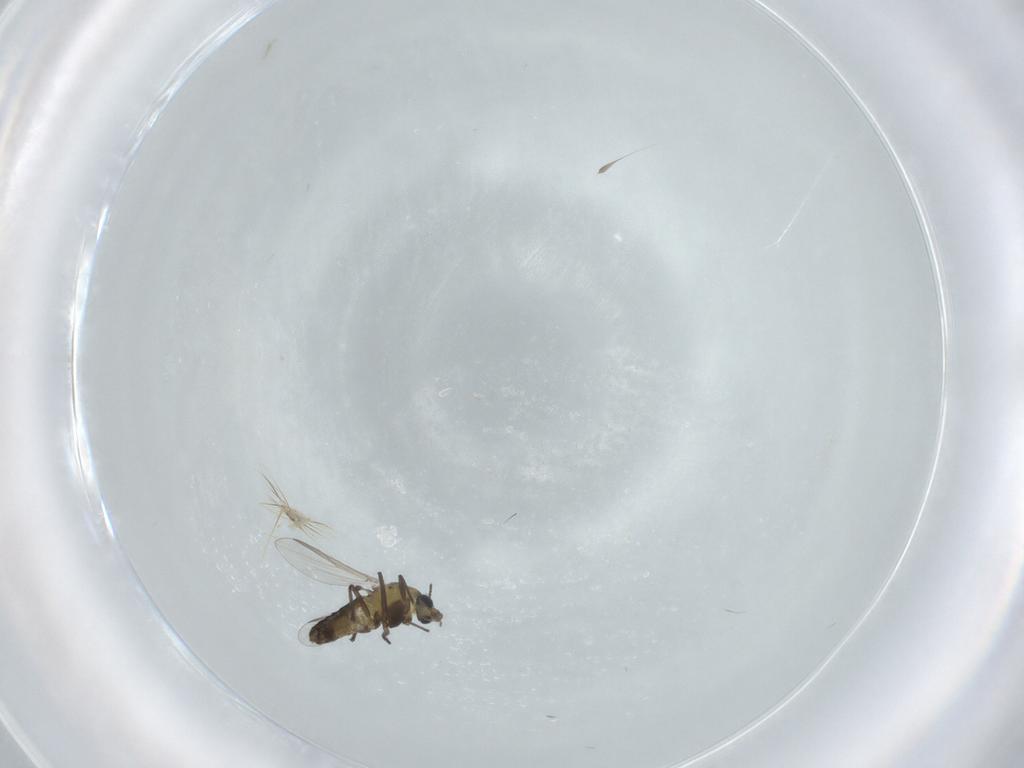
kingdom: Animalia
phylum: Arthropoda
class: Insecta
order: Diptera
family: Chironomidae
